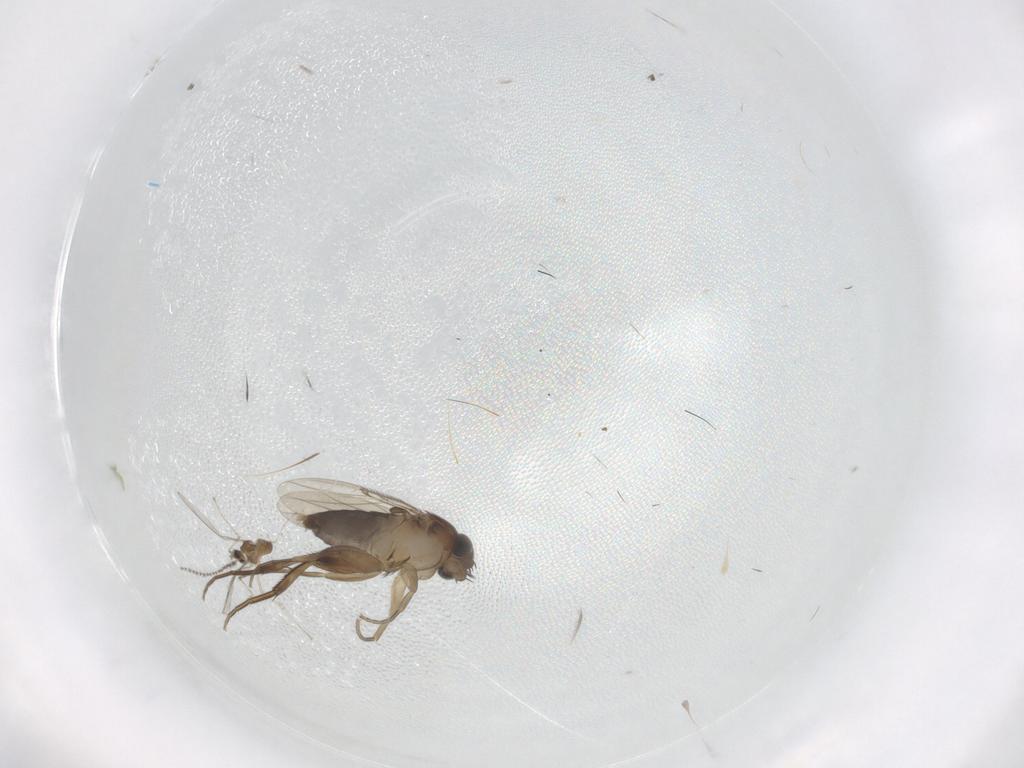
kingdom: Animalia
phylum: Arthropoda
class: Insecta
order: Diptera
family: Phoridae
